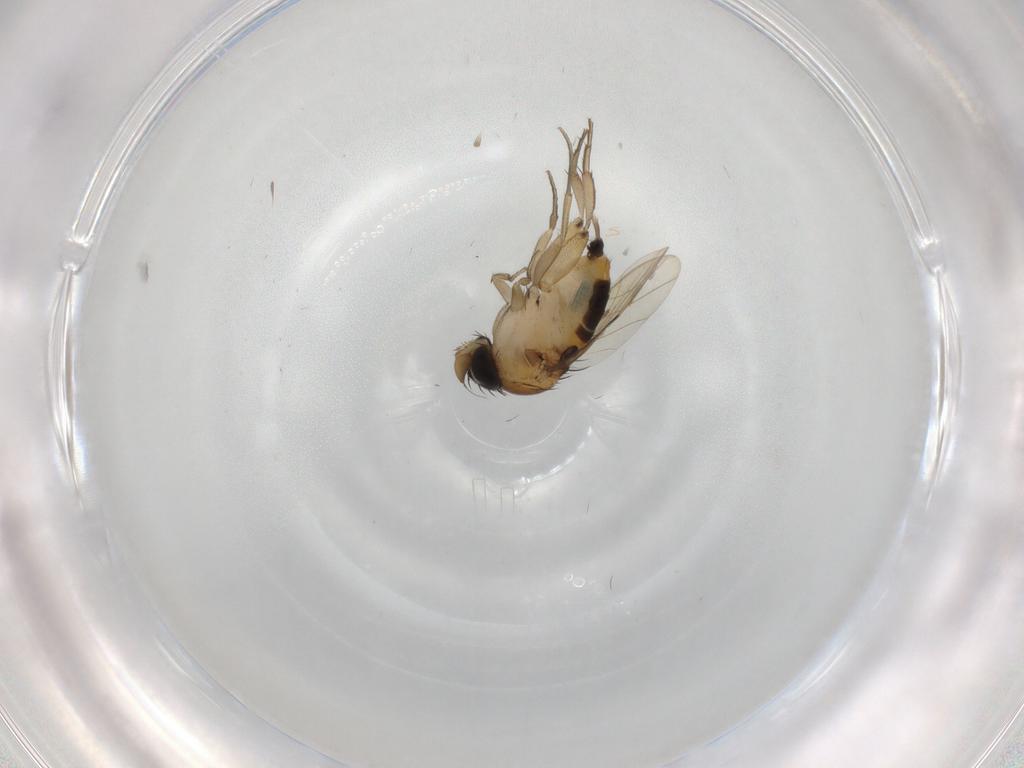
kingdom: Animalia
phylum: Arthropoda
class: Insecta
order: Diptera
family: Phoridae
